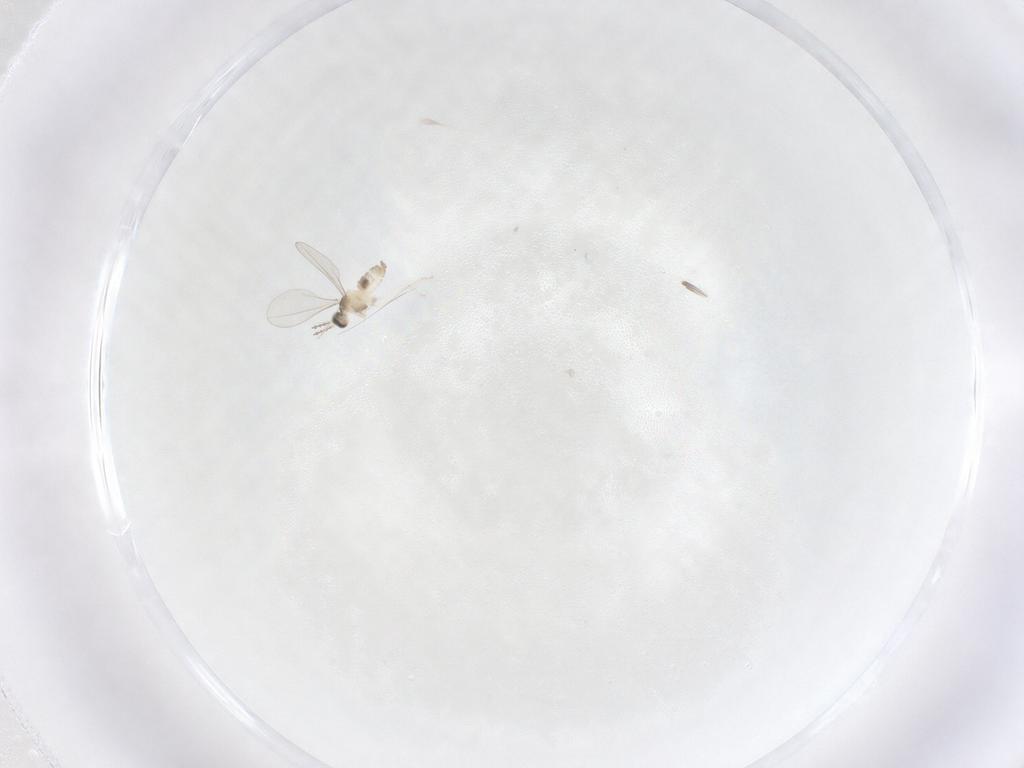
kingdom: Animalia
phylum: Arthropoda
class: Insecta
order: Diptera
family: Cecidomyiidae
